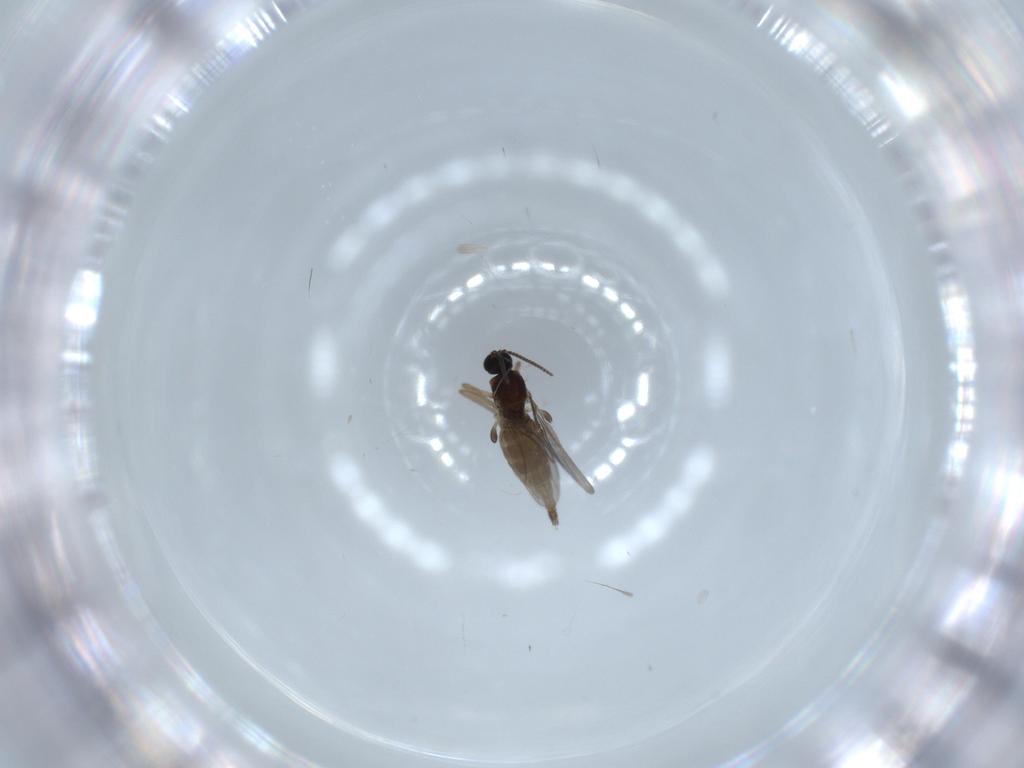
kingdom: Animalia
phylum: Arthropoda
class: Insecta
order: Diptera
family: Sciaridae
